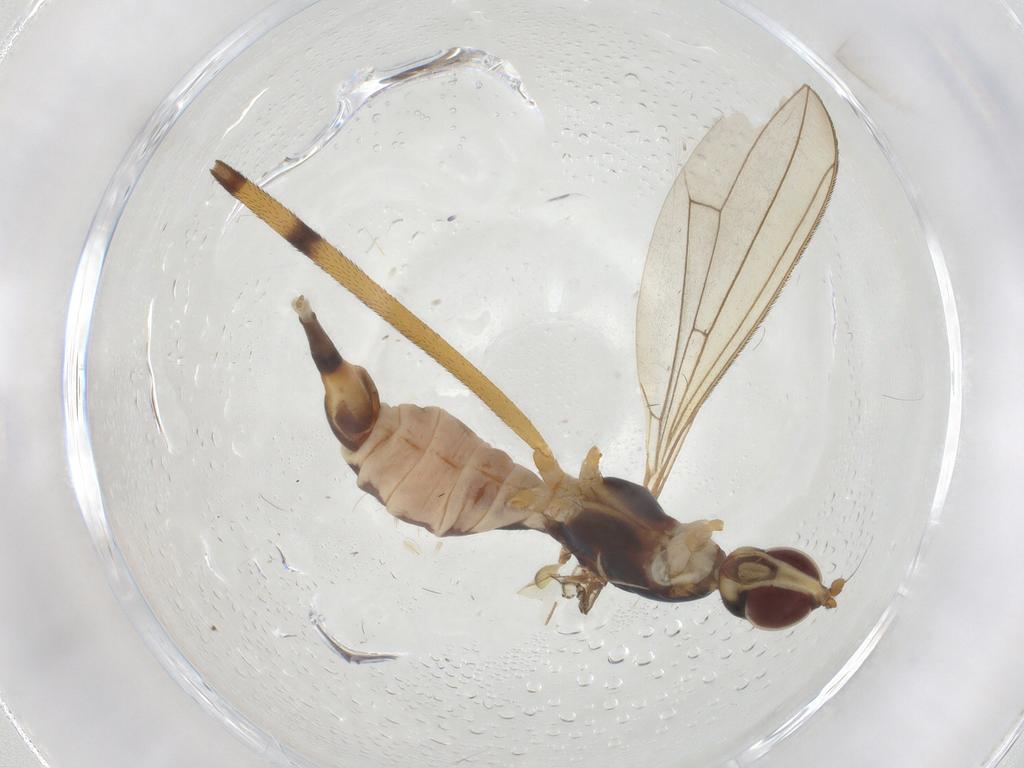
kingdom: Animalia
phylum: Arthropoda
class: Insecta
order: Diptera
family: Micropezidae
